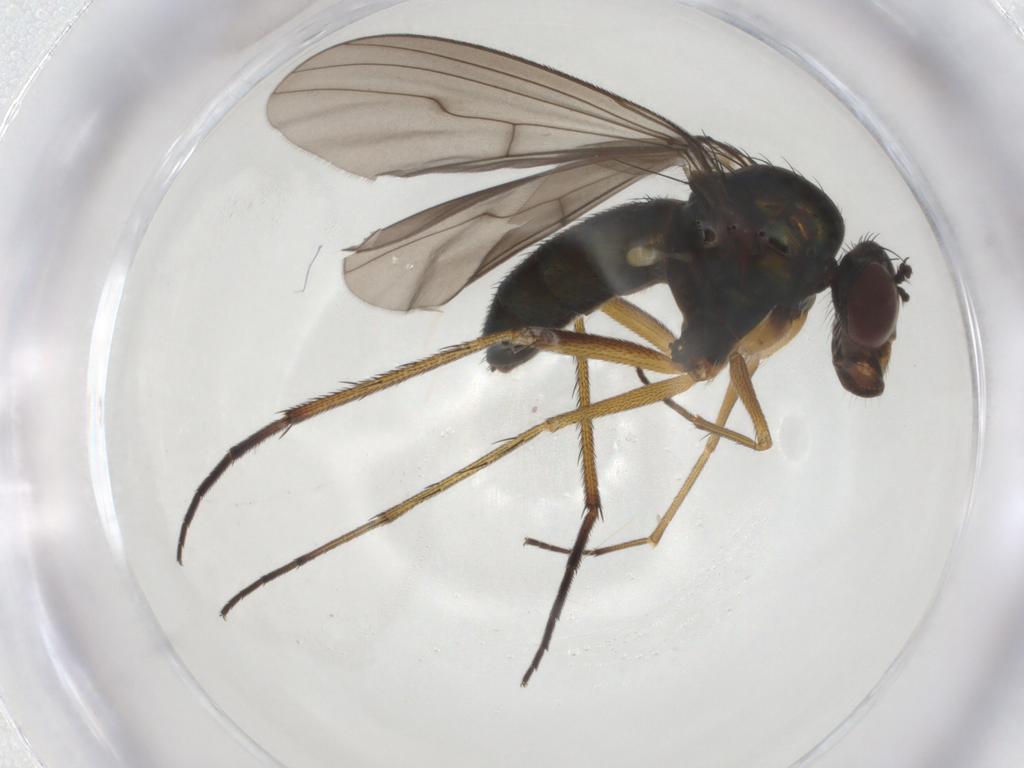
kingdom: Animalia
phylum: Arthropoda
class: Insecta
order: Diptera
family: Dolichopodidae
